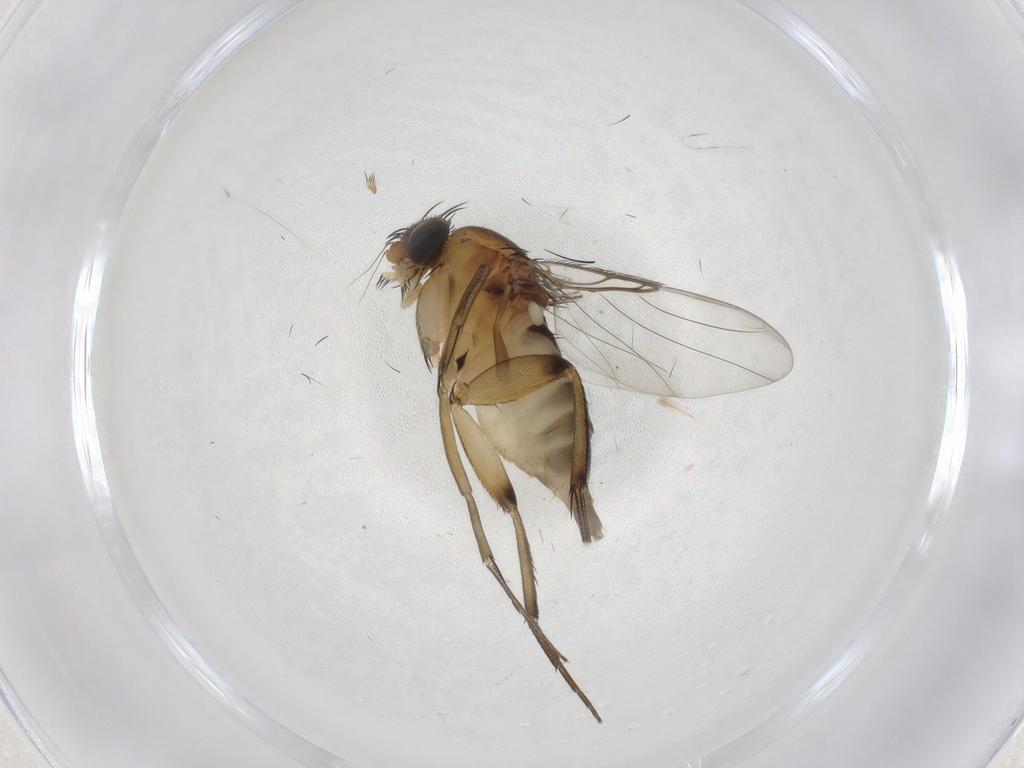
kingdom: Animalia
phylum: Arthropoda
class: Insecta
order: Diptera
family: Phoridae
